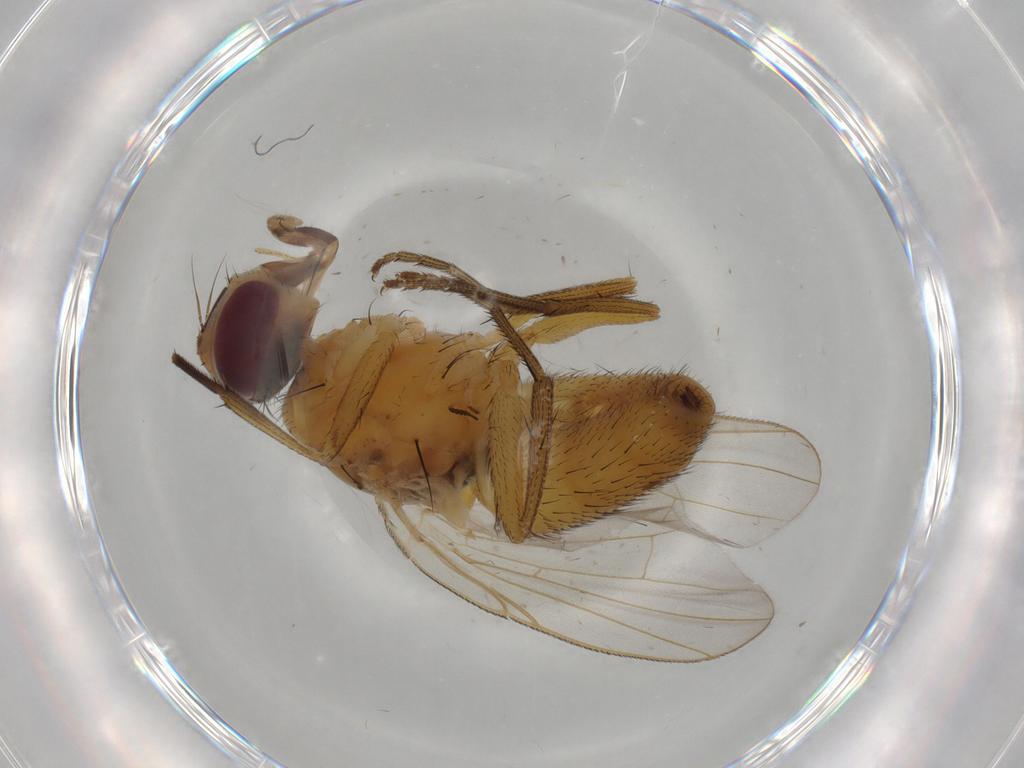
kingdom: Animalia
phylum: Arthropoda
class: Insecta
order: Diptera
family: Muscidae
